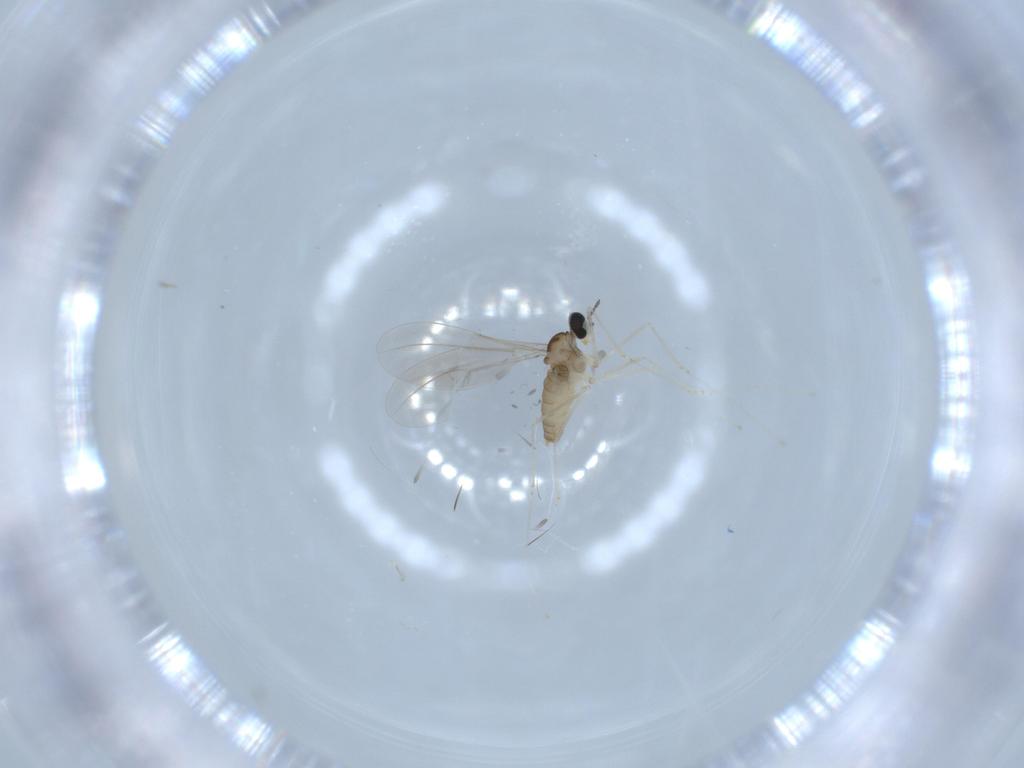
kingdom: Animalia
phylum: Arthropoda
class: Insecta
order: Diptera
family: Cecidomyiidae
